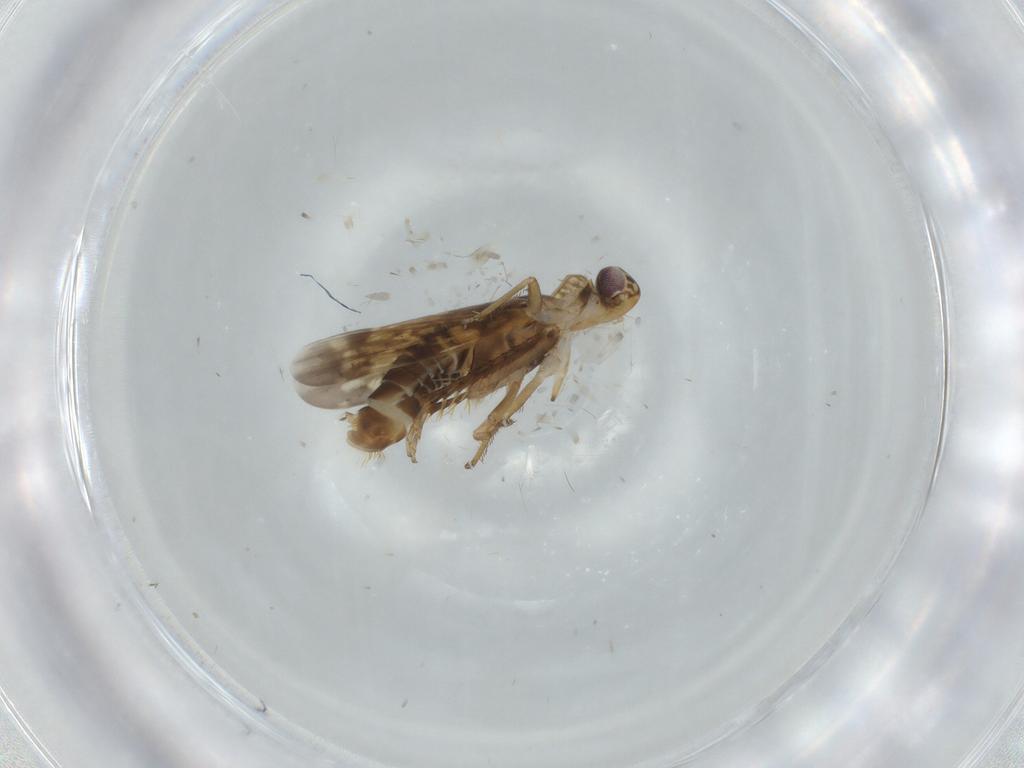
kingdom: Animalia
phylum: Arthropoda
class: Insecta
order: Hemiptera
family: Cicadellidae
